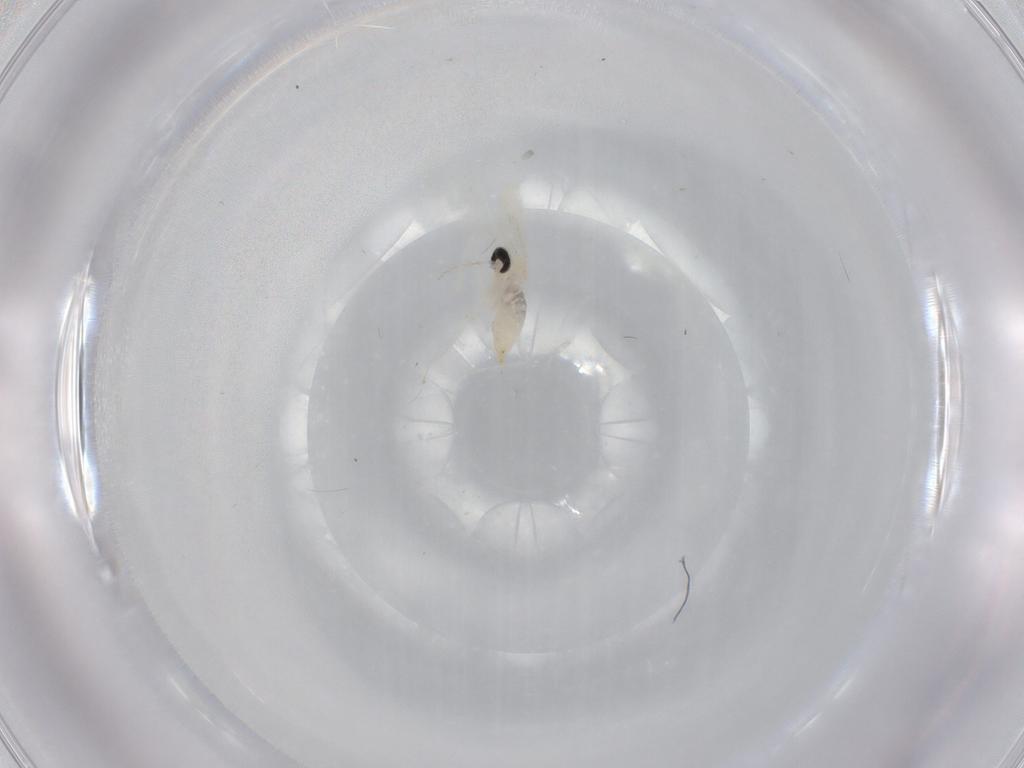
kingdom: Animalia
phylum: Arthropoda
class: Insecta
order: Diptera
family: Cecidomyiidae
